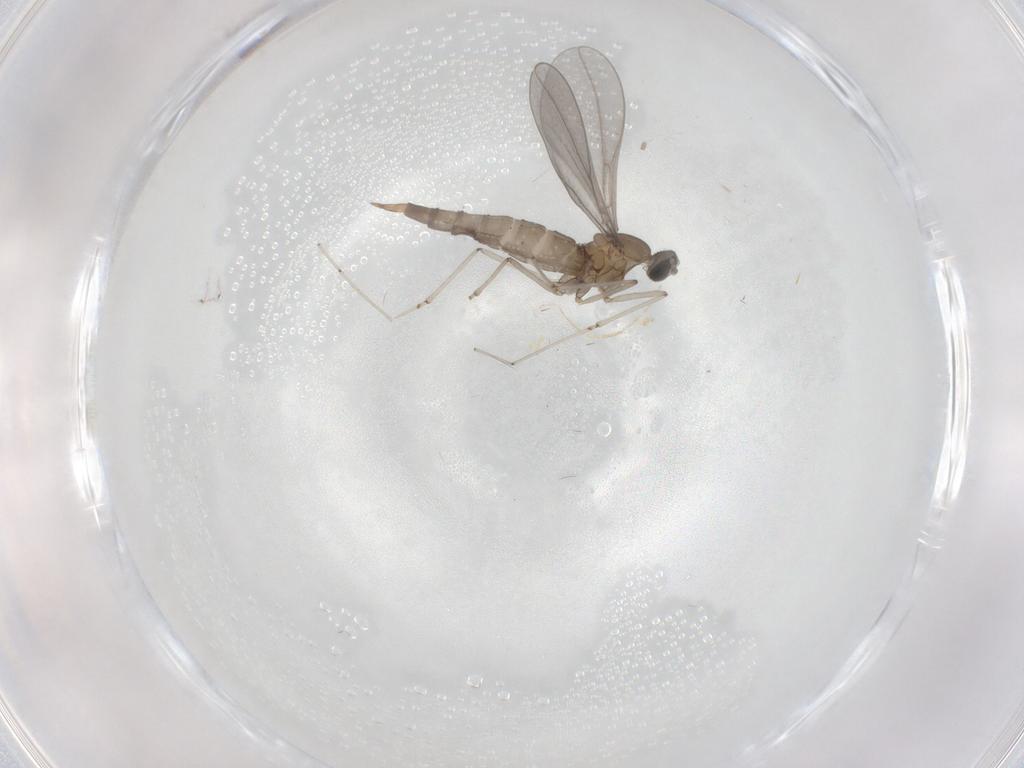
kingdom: Animalia
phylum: Arthropoda
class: Insecta
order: Diptera
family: Cecidomyiidae
